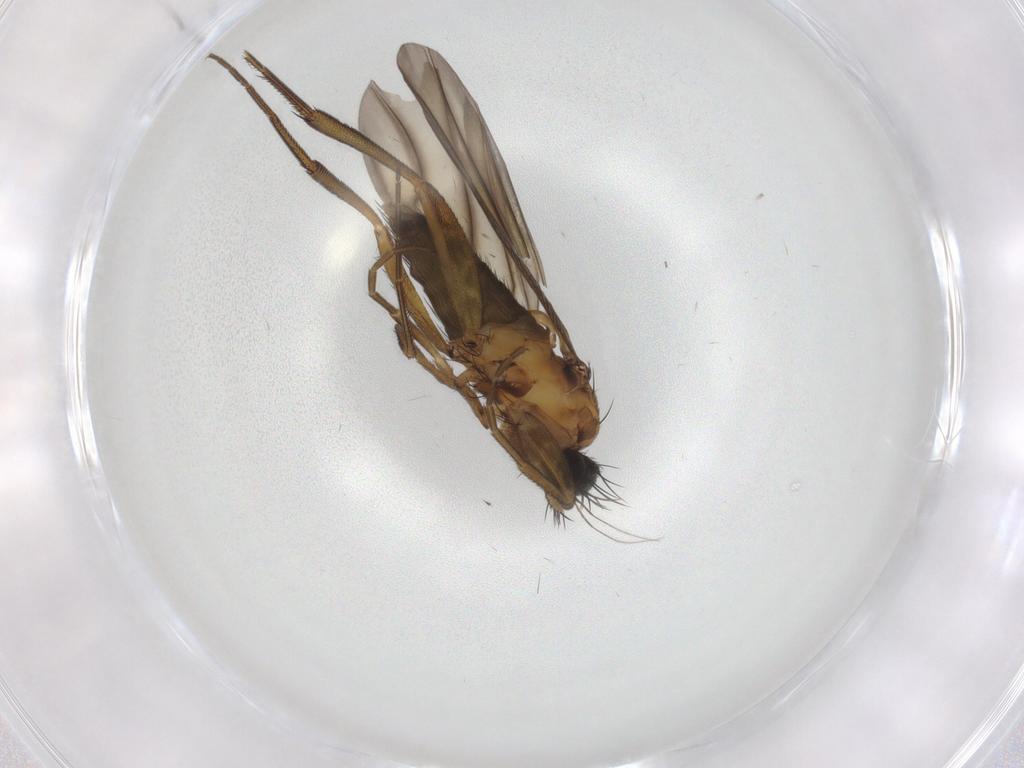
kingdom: Animalia
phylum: Arthropoda
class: Insecta
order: Diptera
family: Phoridae
